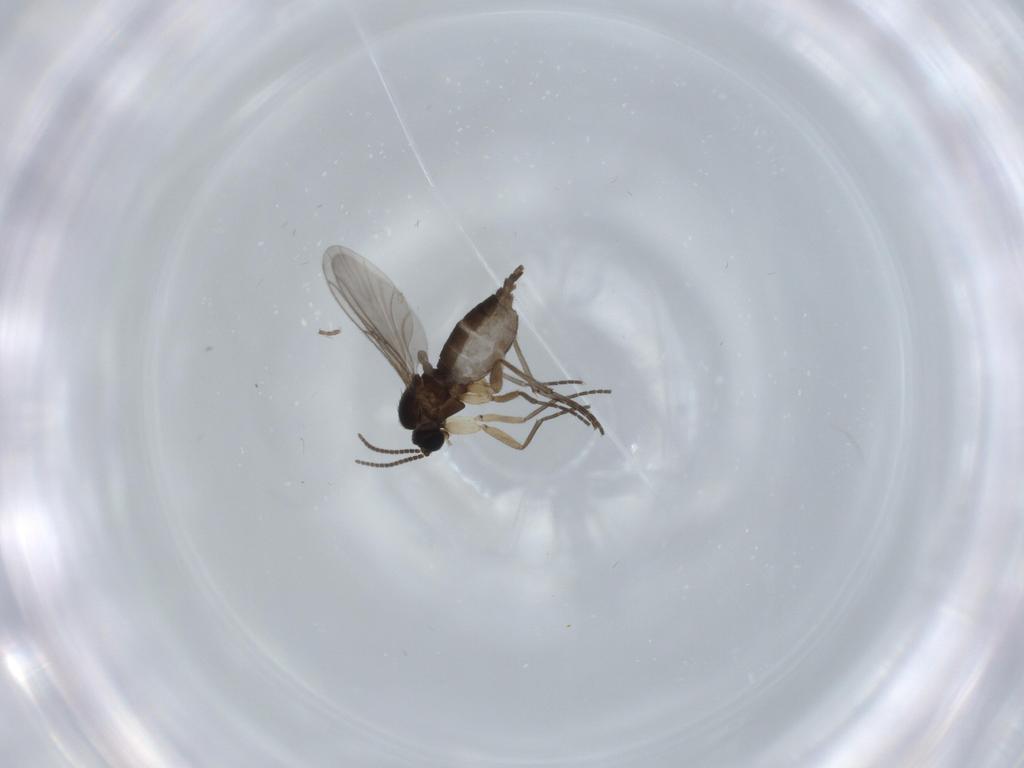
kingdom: Animalia
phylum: Arthropoda
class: Insecta
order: Diptera
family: Sciaridae
